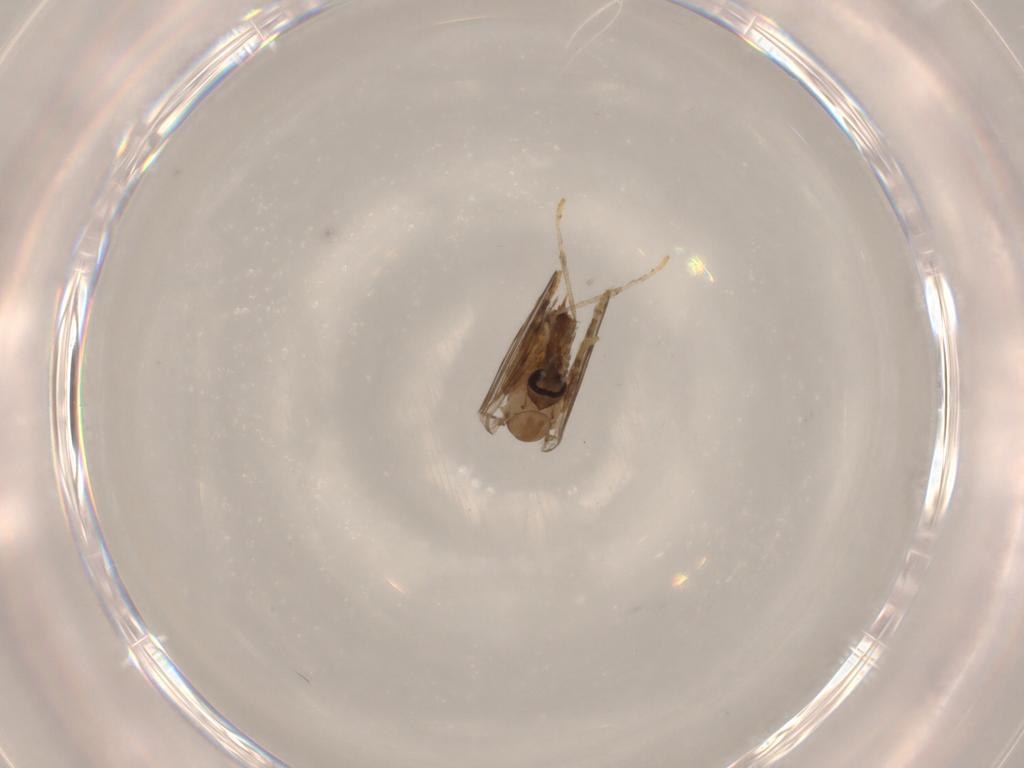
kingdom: Animalia
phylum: Arthropoda
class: Insecta
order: Diptera
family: Psychodidae
